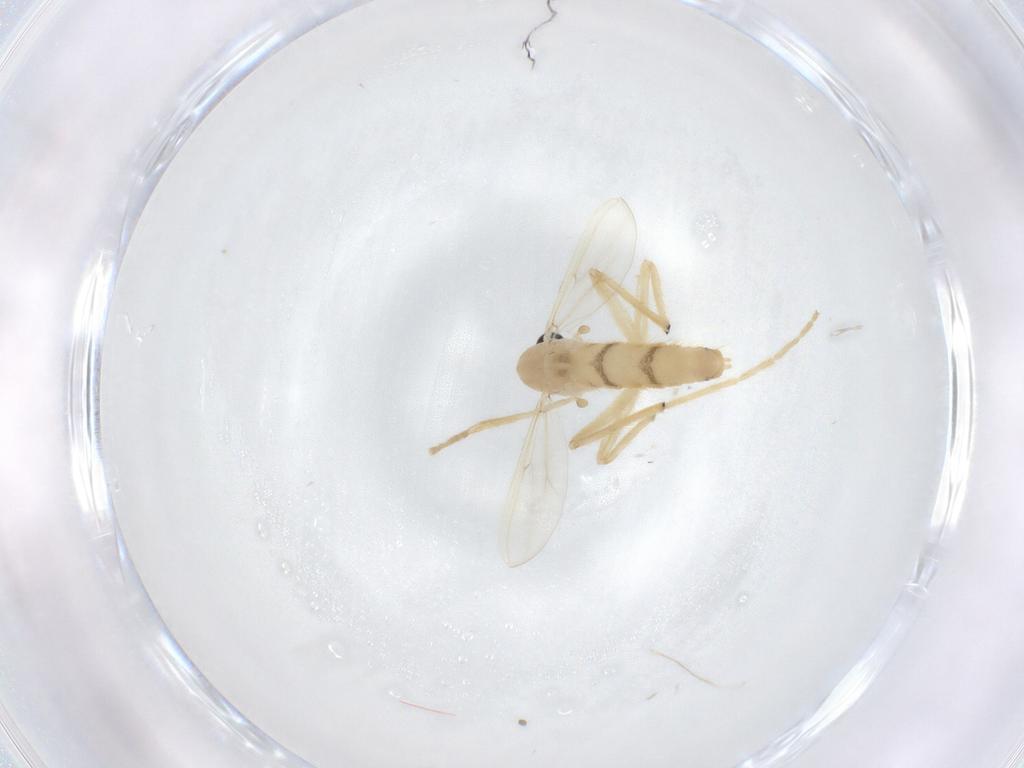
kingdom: Animalia
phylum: Arthropoda
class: Insecta
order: Diptera
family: Chironomidae
